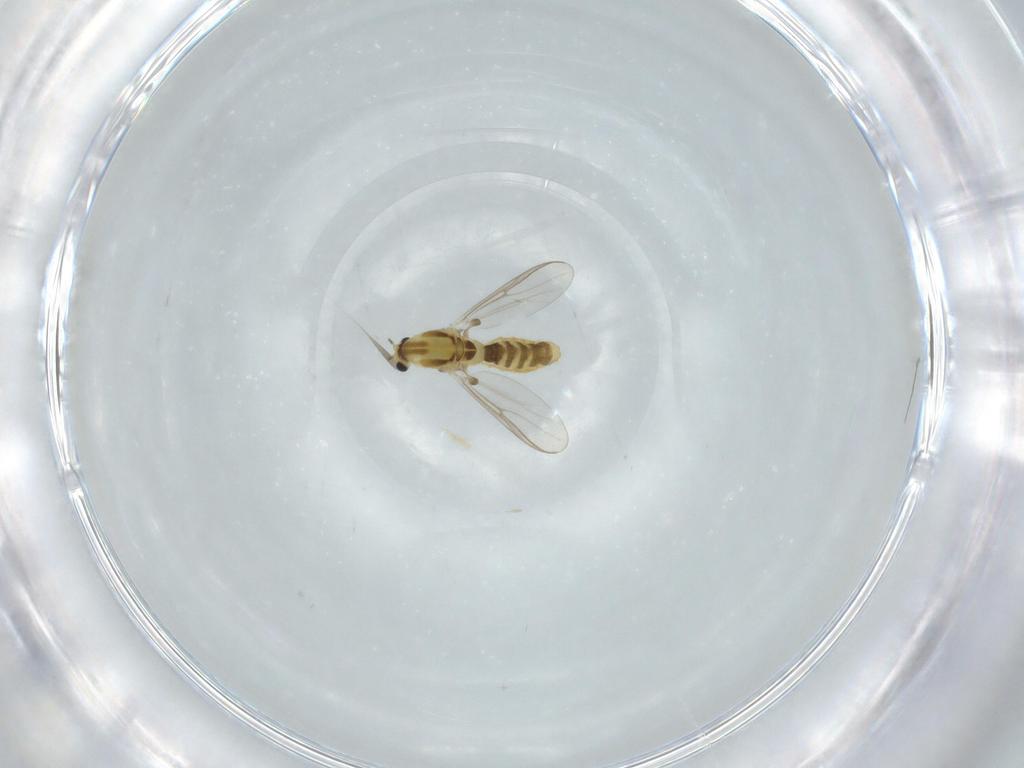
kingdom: Animalia
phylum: Arthropoda
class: Insecta
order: Diptera
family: Chironomidae
